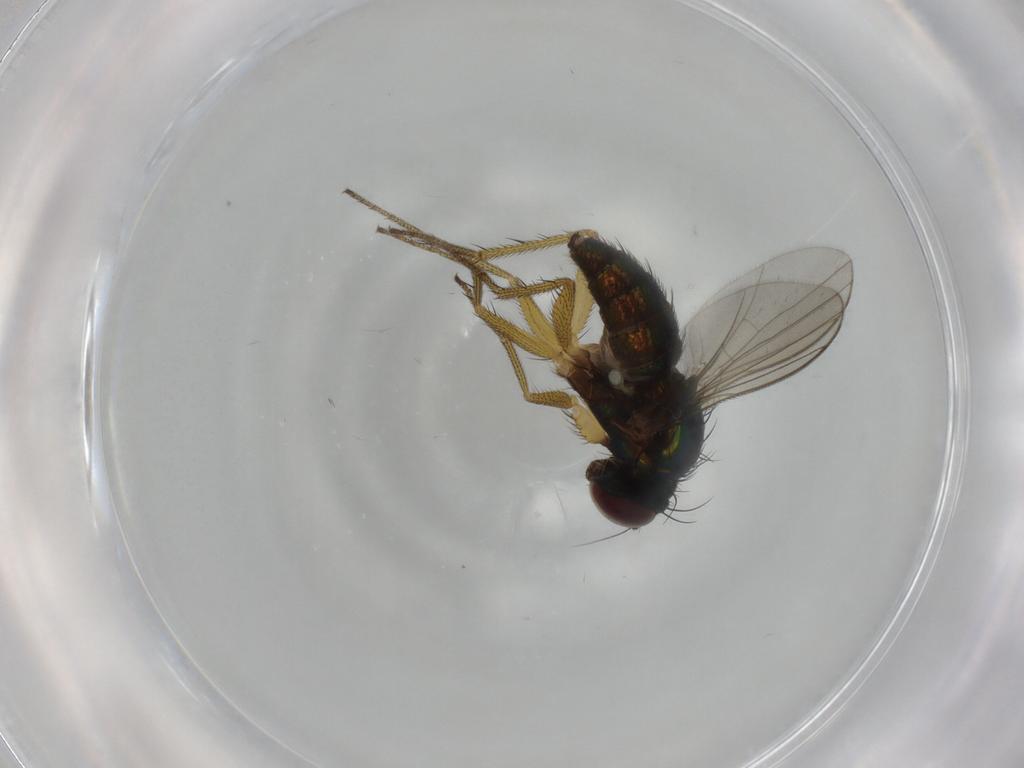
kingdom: Animalia
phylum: Arthropoda
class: Insecta
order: Diptera
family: Dolichopodidae
